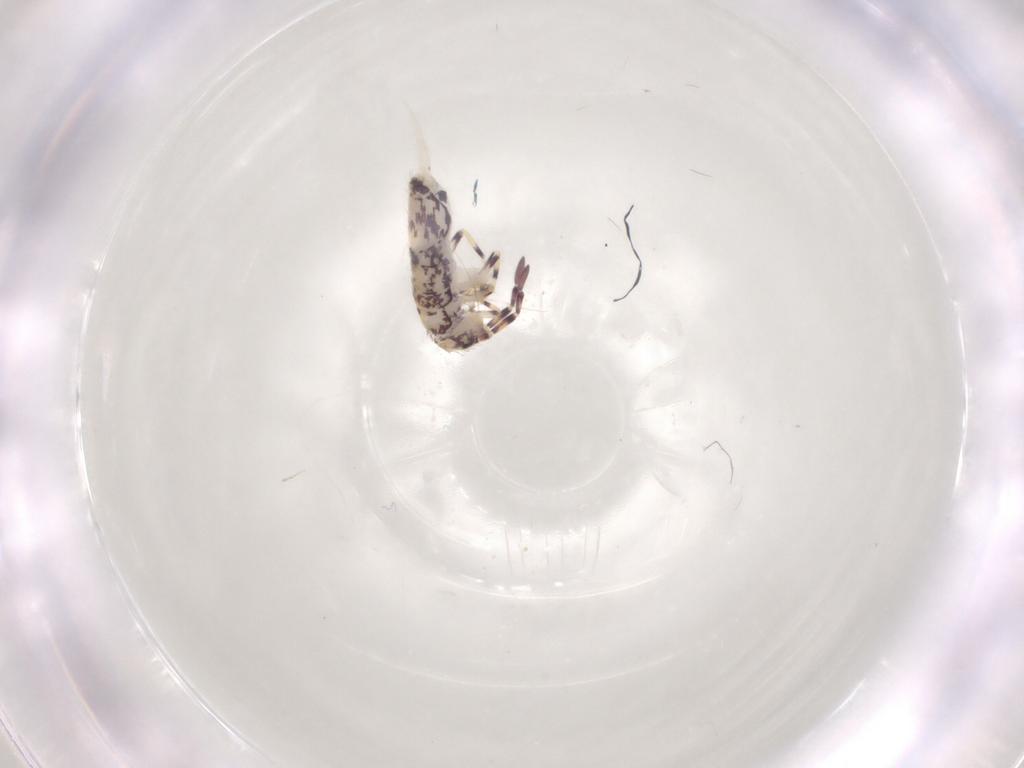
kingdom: Animalia
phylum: Arthropoda
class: Collembola
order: Entomobryomorpha
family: Entomobryidae
